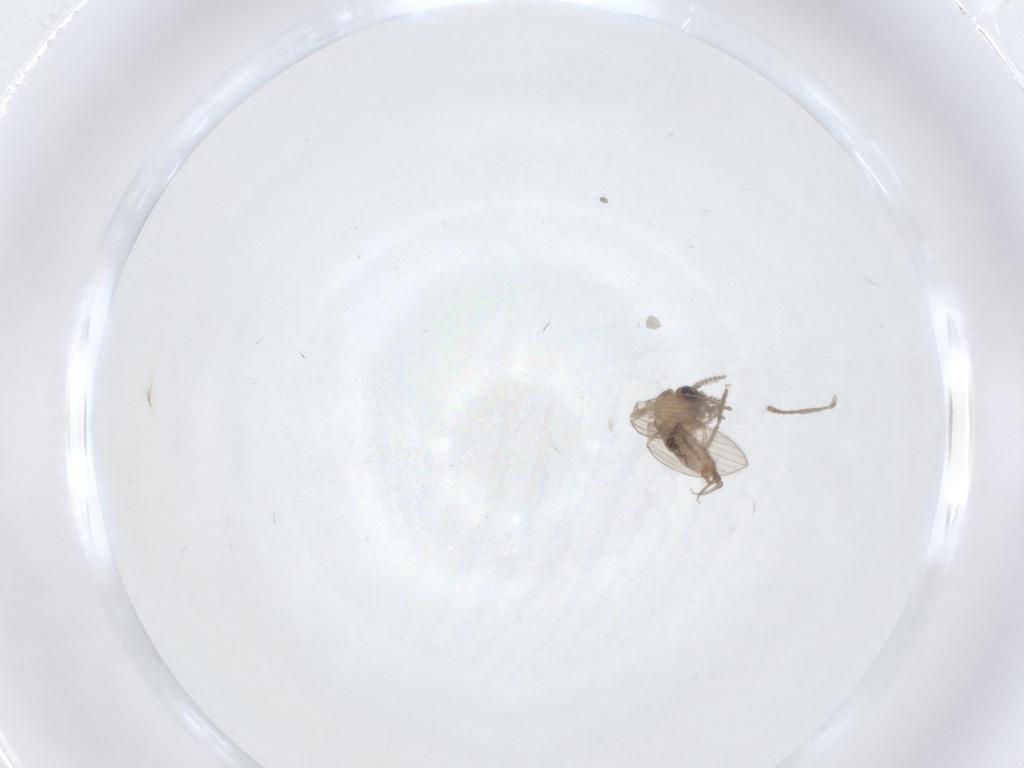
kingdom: Animalia
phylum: Arthropoda
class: Insecta
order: Diptera
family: Psychodidae
